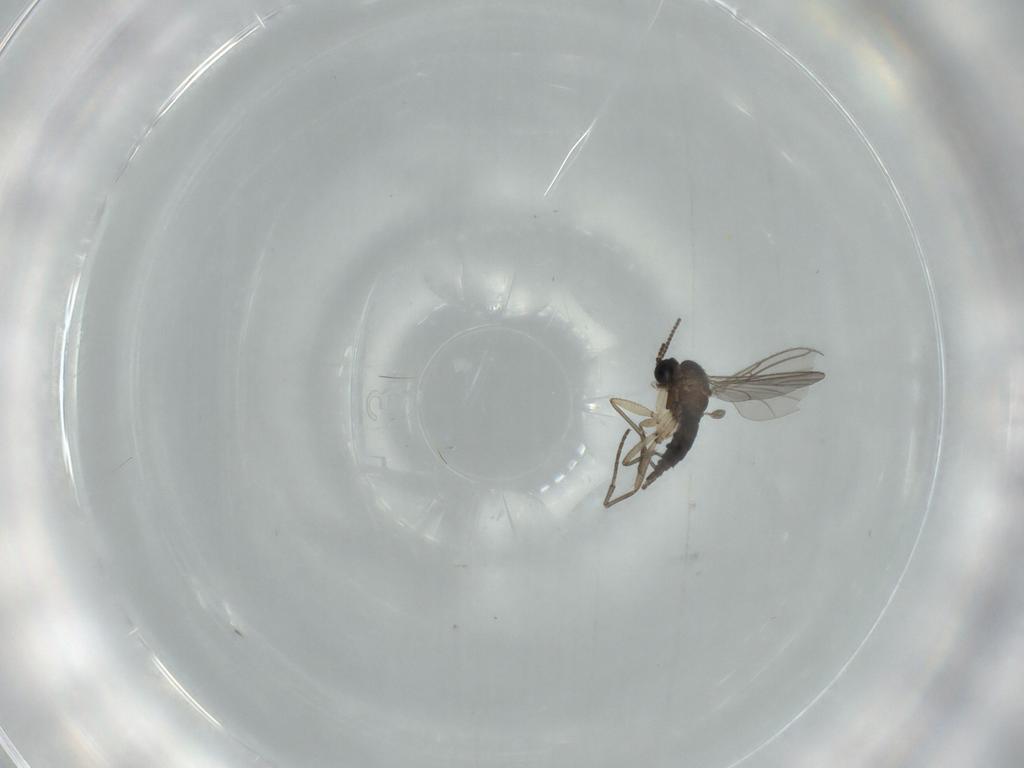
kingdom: Animalia
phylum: Arthropoda
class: Insecta
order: Diptera
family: Sciaridae
